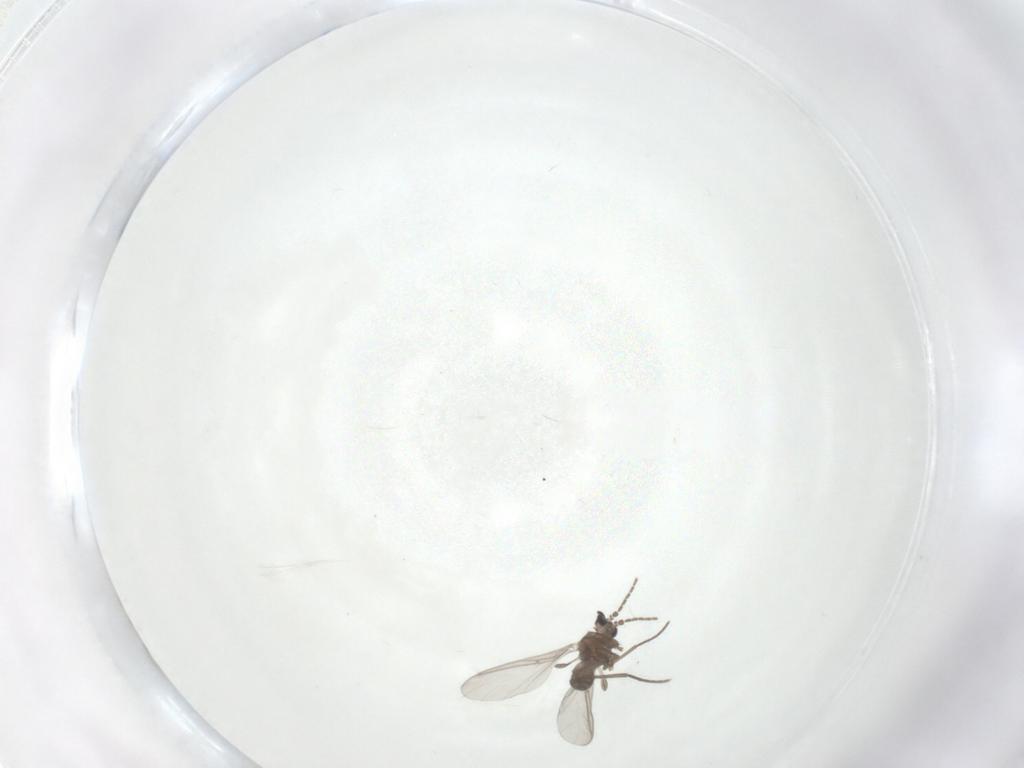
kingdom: Animalia
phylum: Arthropoda
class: Insecta
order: Diptera
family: Sciaridae
